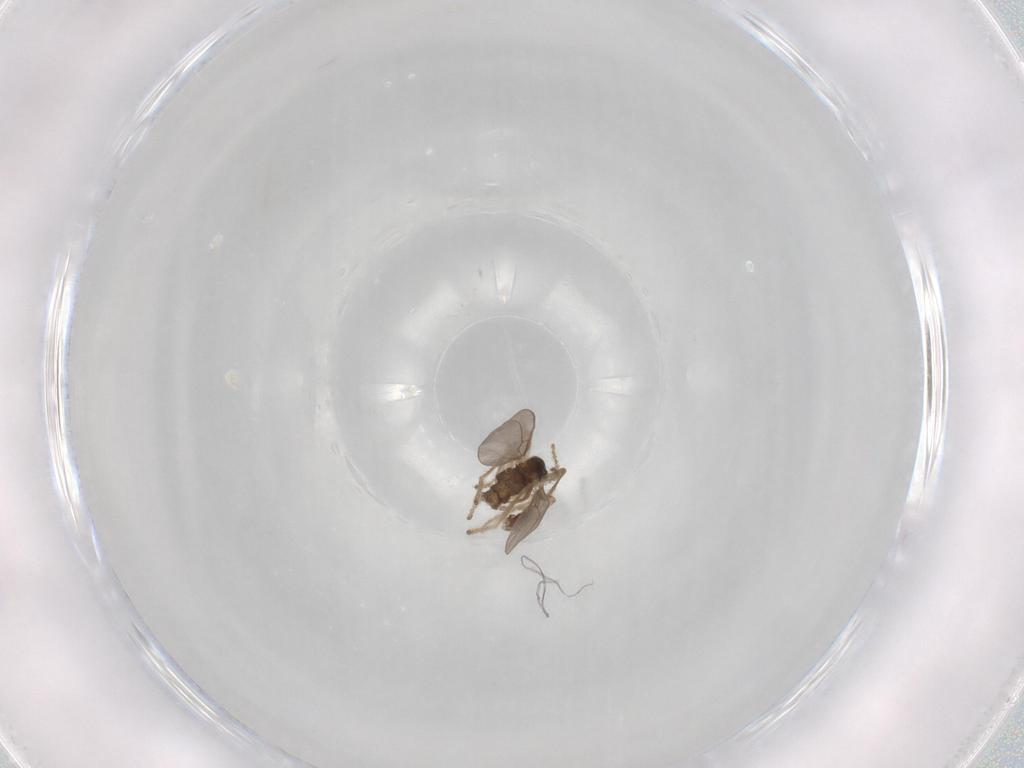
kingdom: Animalia
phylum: Arthropoda
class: Insecta
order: Diptera
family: Cecidomyiidae
